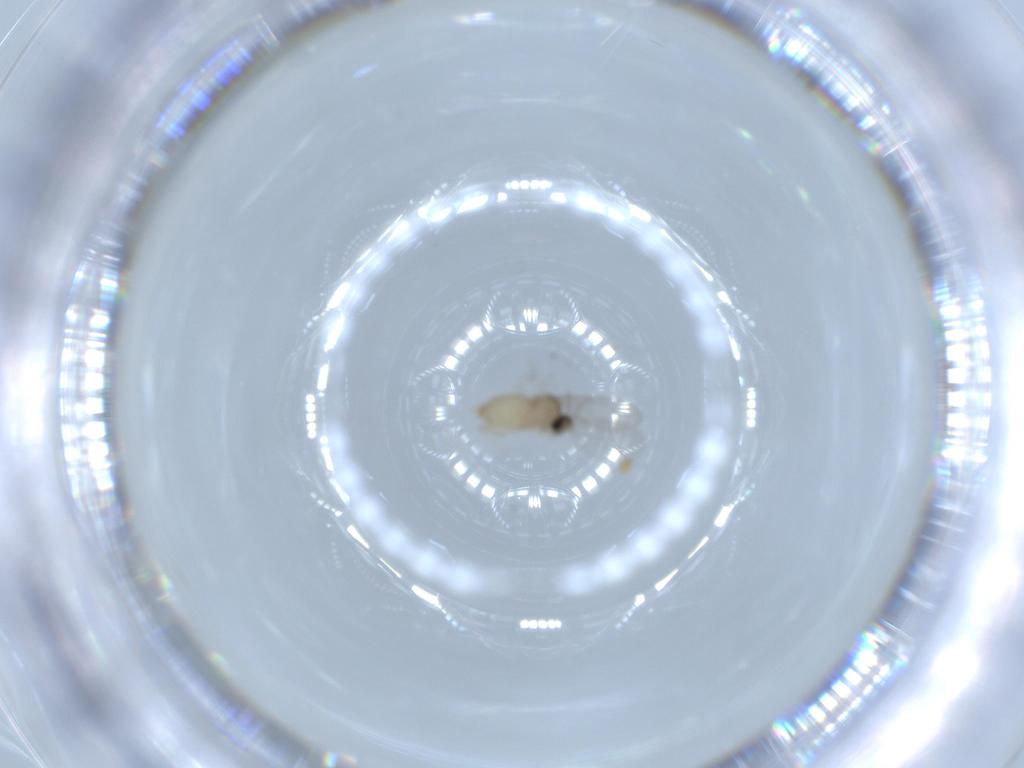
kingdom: Animalia
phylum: Arthropoda
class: Insecta
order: Diptera
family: Cecidomyiidae
